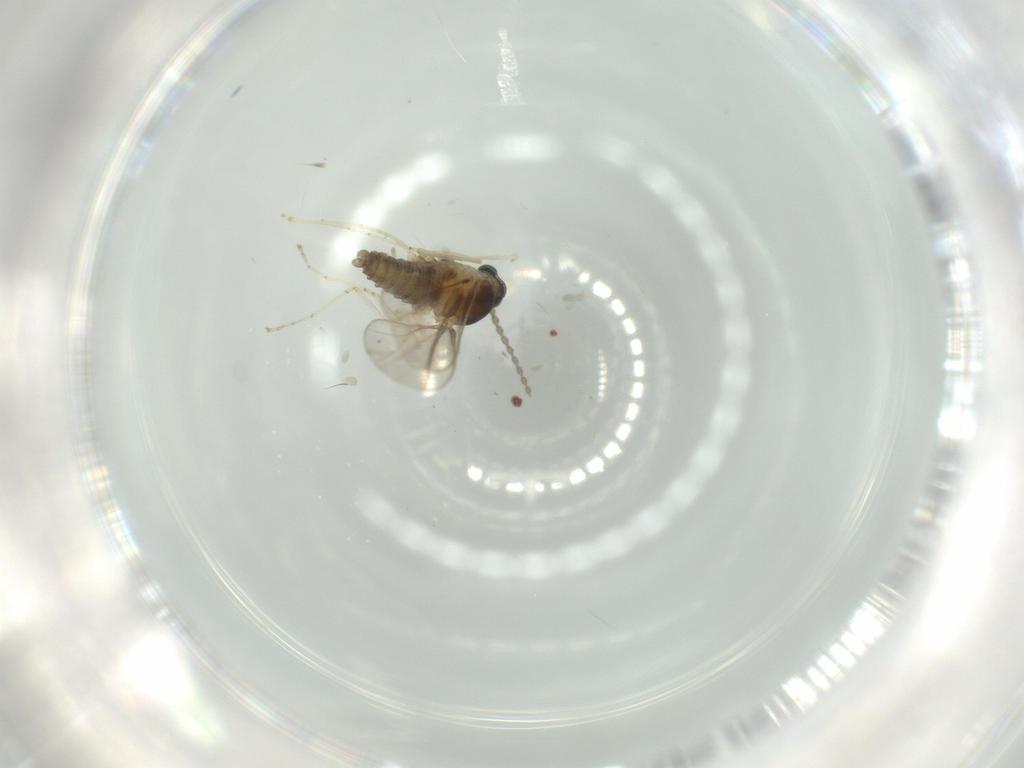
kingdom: Animalia
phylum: Arthropoda
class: Insecta
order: Diptera
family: Cecidomyiidae
